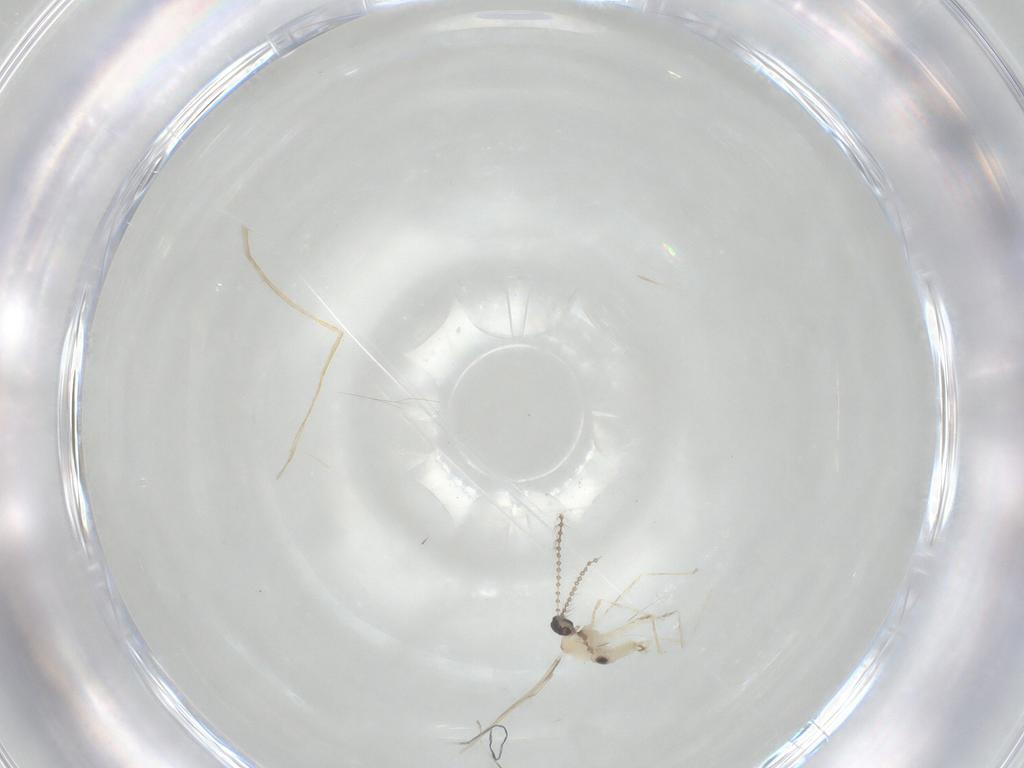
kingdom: Animalia
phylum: Arthropoda
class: Insecta
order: Diptera
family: Cecidomyiidae
